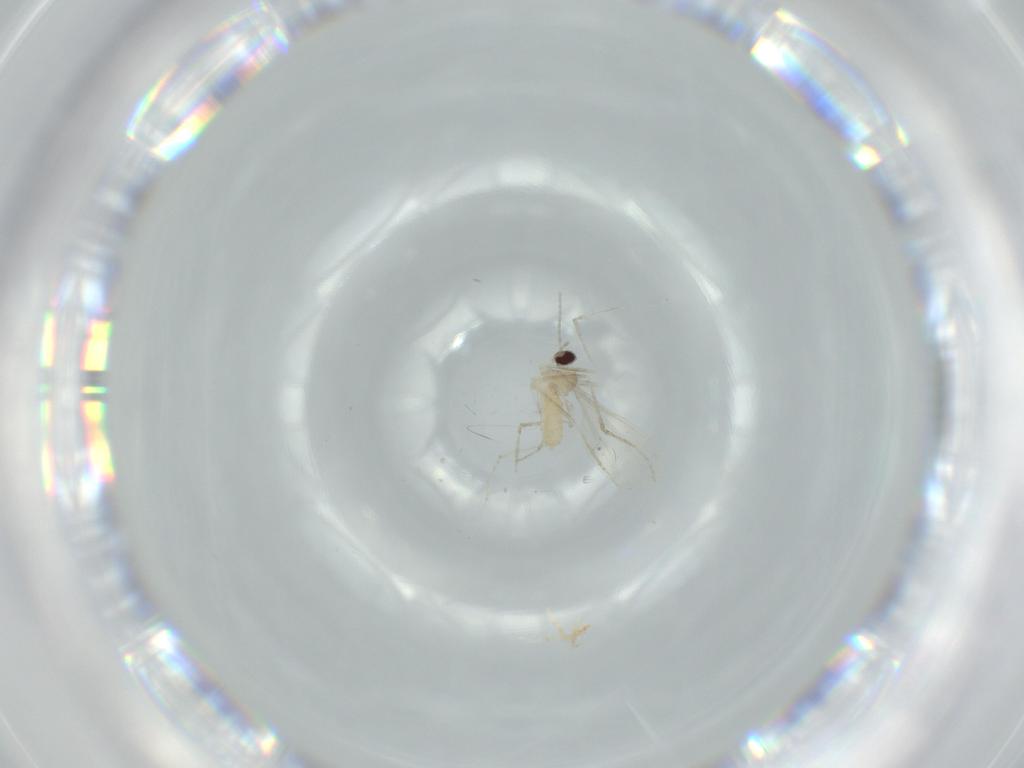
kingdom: Animalia
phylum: Arthropoda
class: Insecta
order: Diptera
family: Cecidomyiidae
